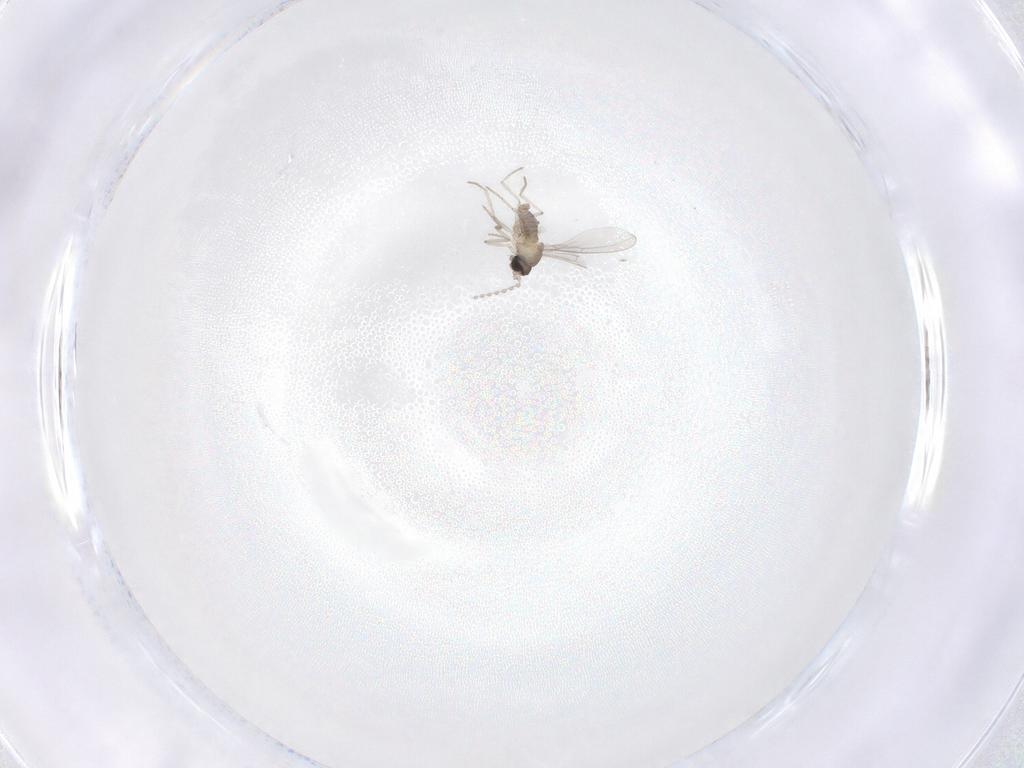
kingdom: Animalia
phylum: Arthropoda
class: Insecta
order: Diptera
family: Cecidomyiidae
